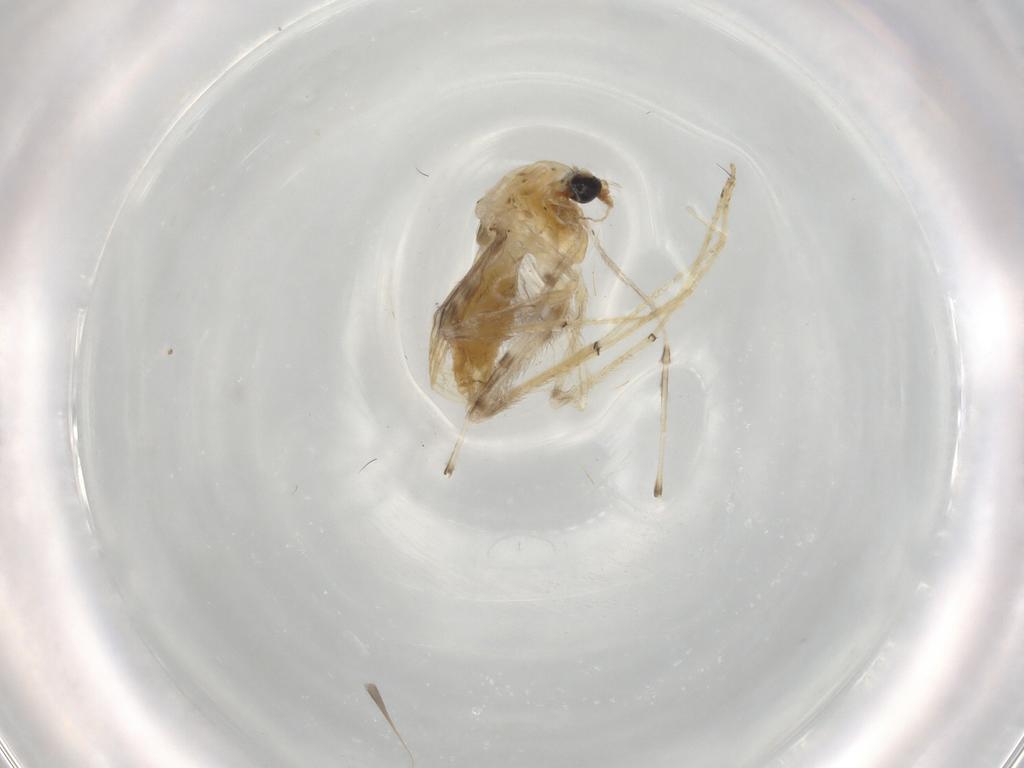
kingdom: Animalia
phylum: Arthropoda
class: Insecta
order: Diptera
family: Chironomidae
